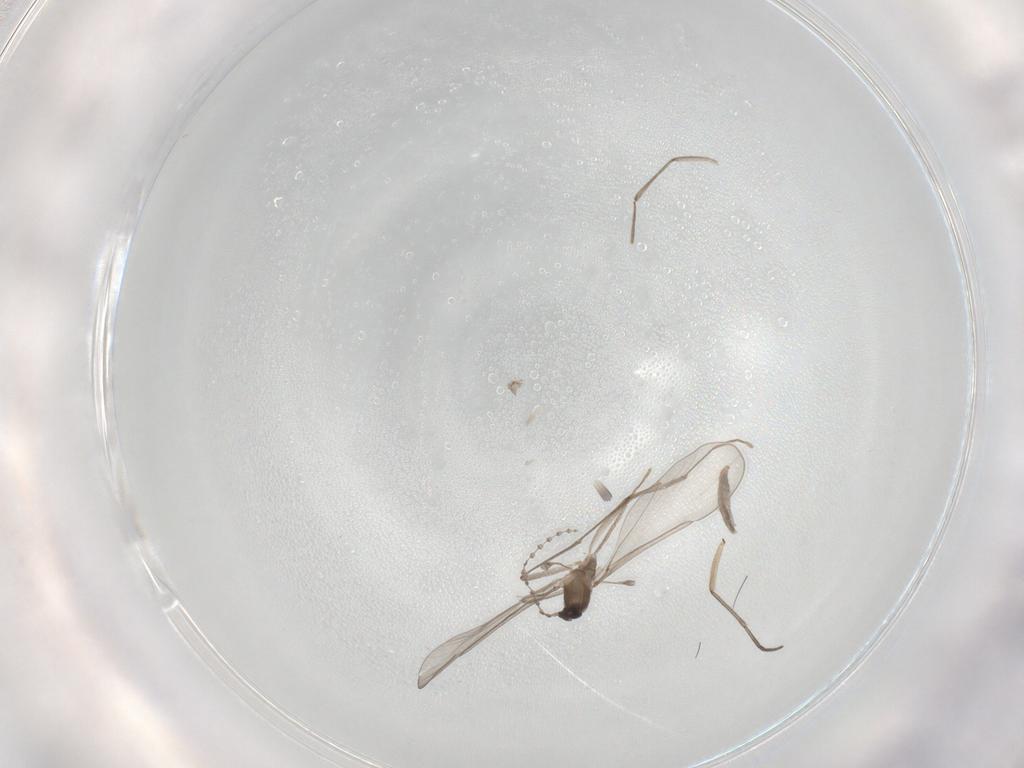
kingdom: Animalia
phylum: Arthropoda
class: Insecta
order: Diptera
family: Cecidomyiidae
